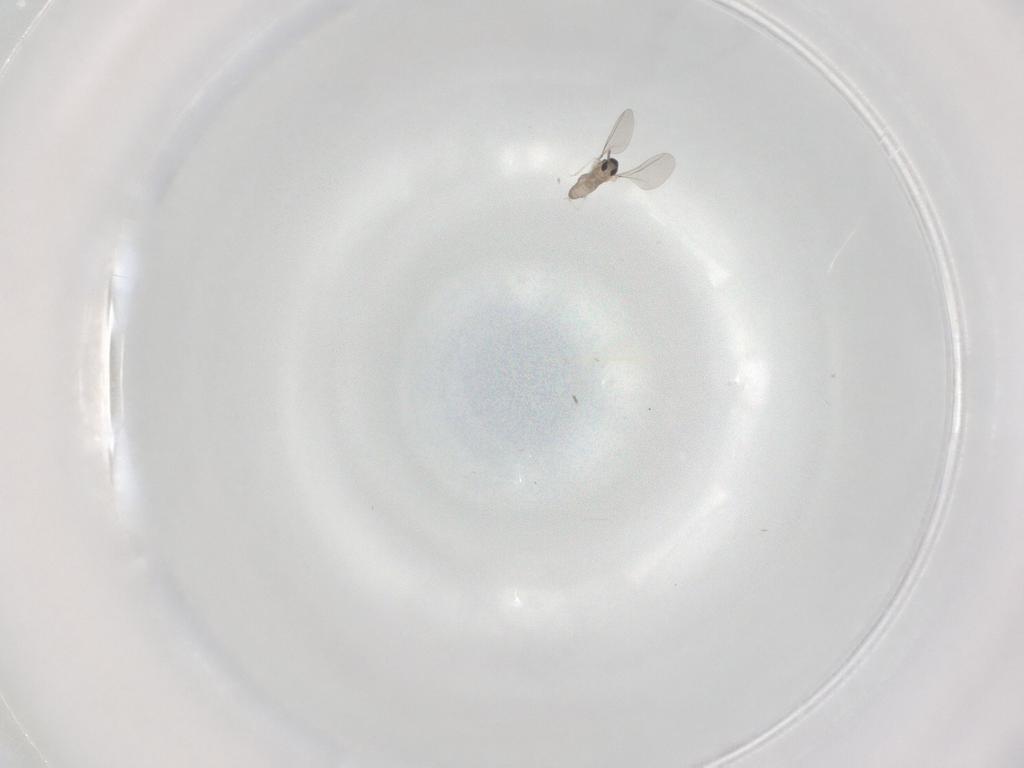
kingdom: Animalia
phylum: Arthropoda
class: Insecta
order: Diptera
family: Cecidomyiidae
